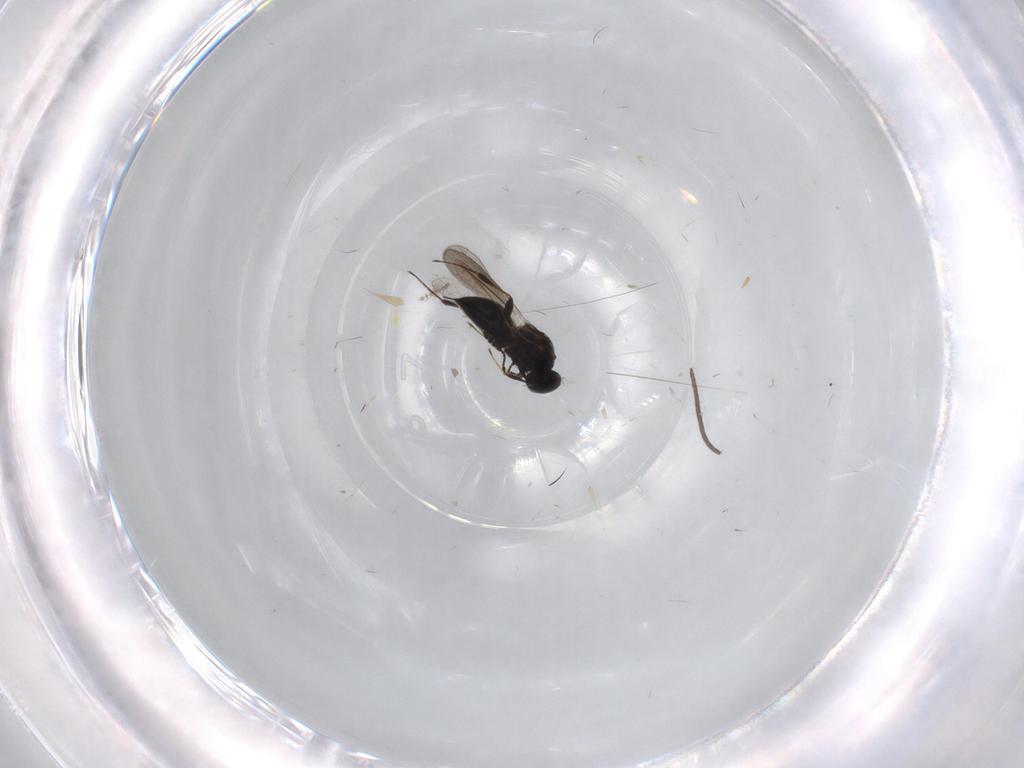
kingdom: Animalia
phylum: Arthropoda
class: Insecta
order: Hymenoptera
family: Platygastridae
